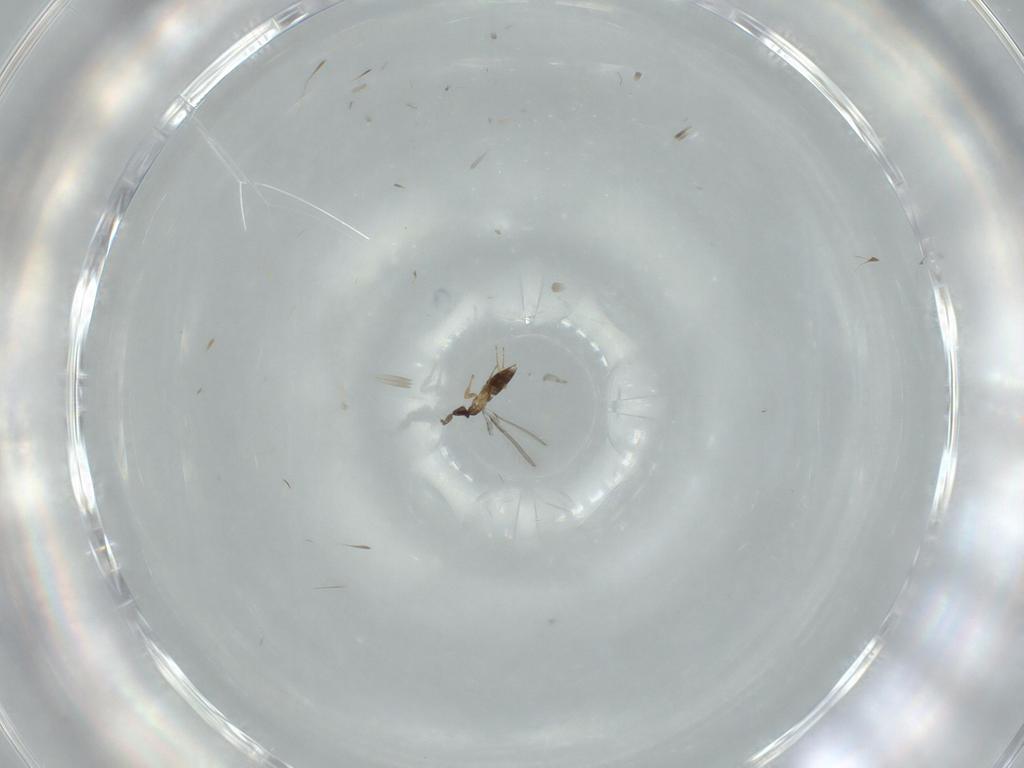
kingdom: Animalia
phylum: Arthropoda
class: Insecta
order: Hymenoptera
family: Mymaridae
